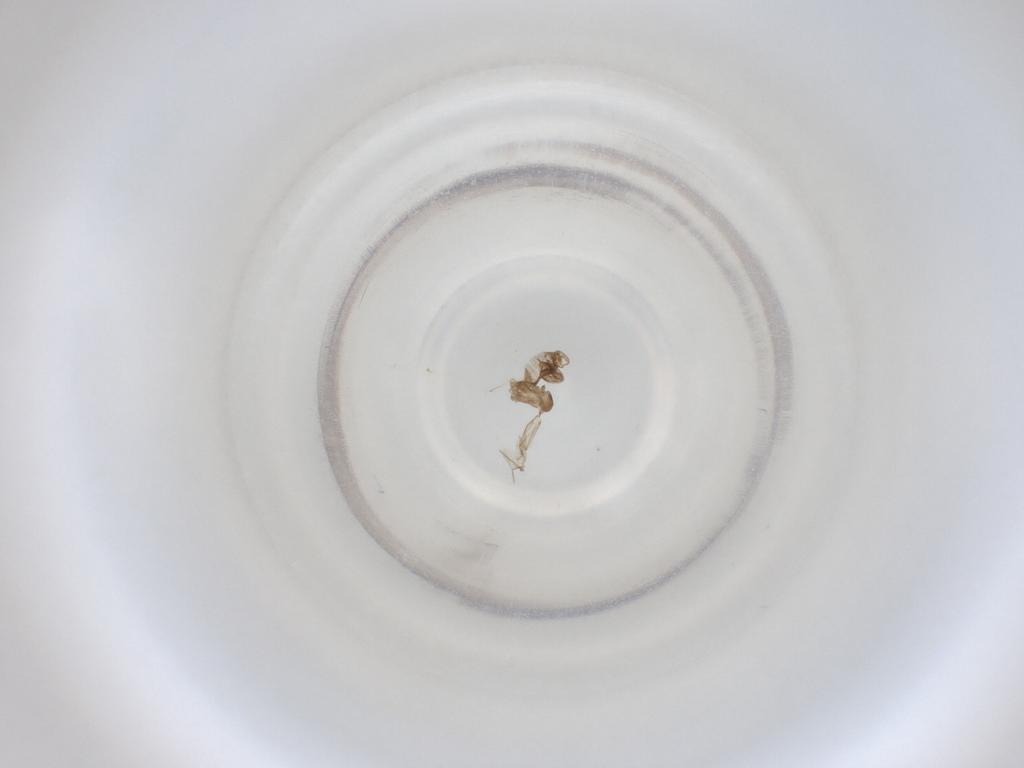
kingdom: Animalia
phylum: Arthropoda
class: Insecta
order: Diptera
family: Cecidomyiidae
